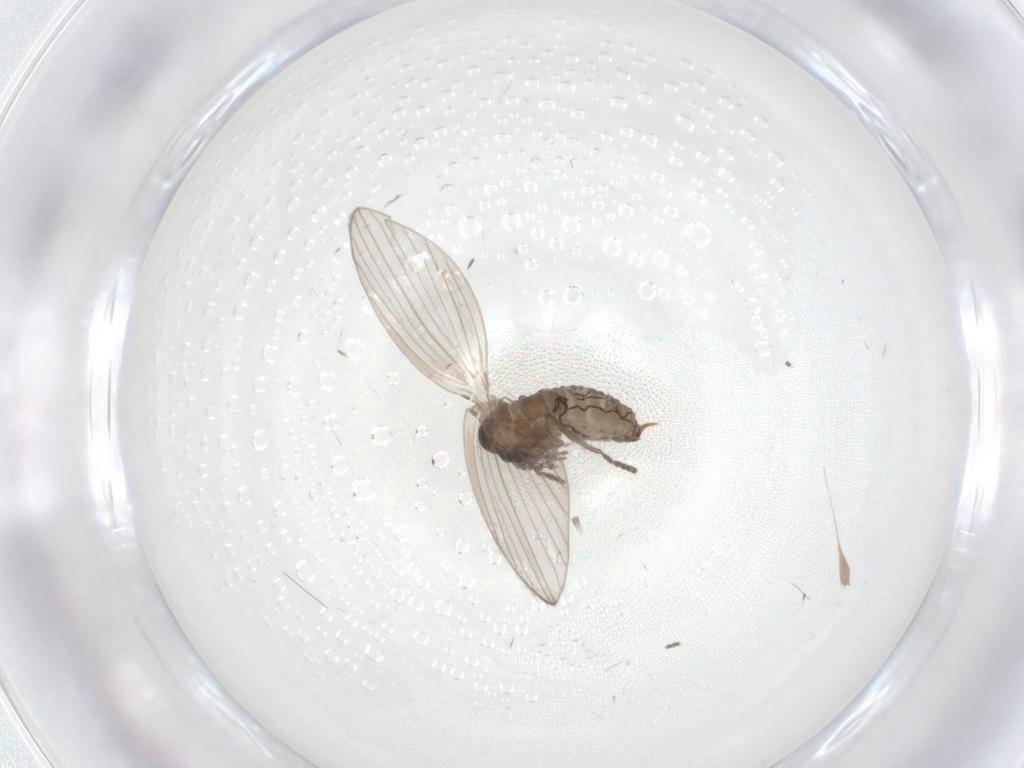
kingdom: Animalia
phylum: Arthropoda
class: Insecta
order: Diptera
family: Psychodidae
